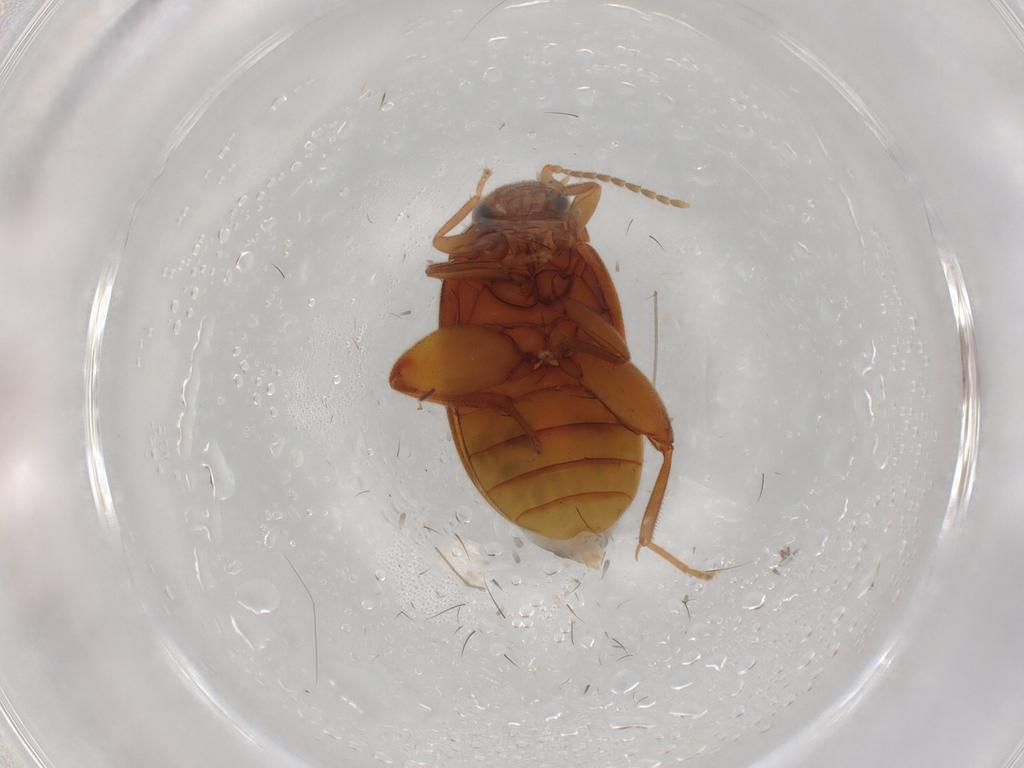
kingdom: Animalia
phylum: Arthropoda
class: Insecta
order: Coleoptera
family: Scirtidae
